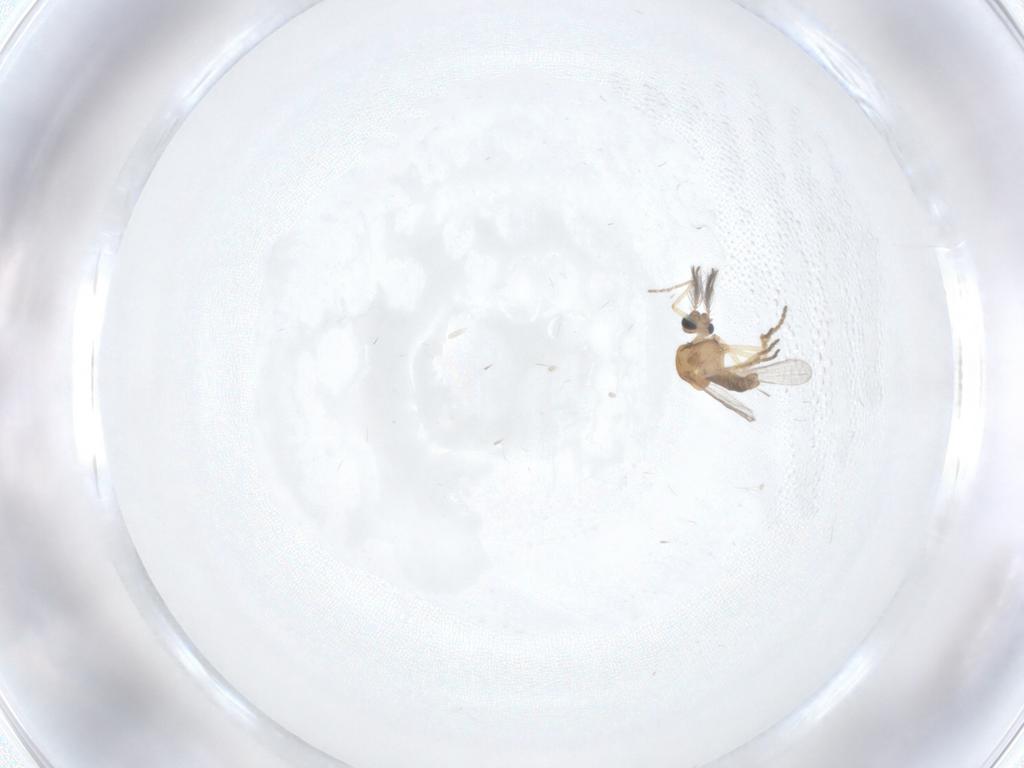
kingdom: Animalia
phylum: Arthropoda
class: Insecta
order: Diptera
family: Ceratopogonidae
